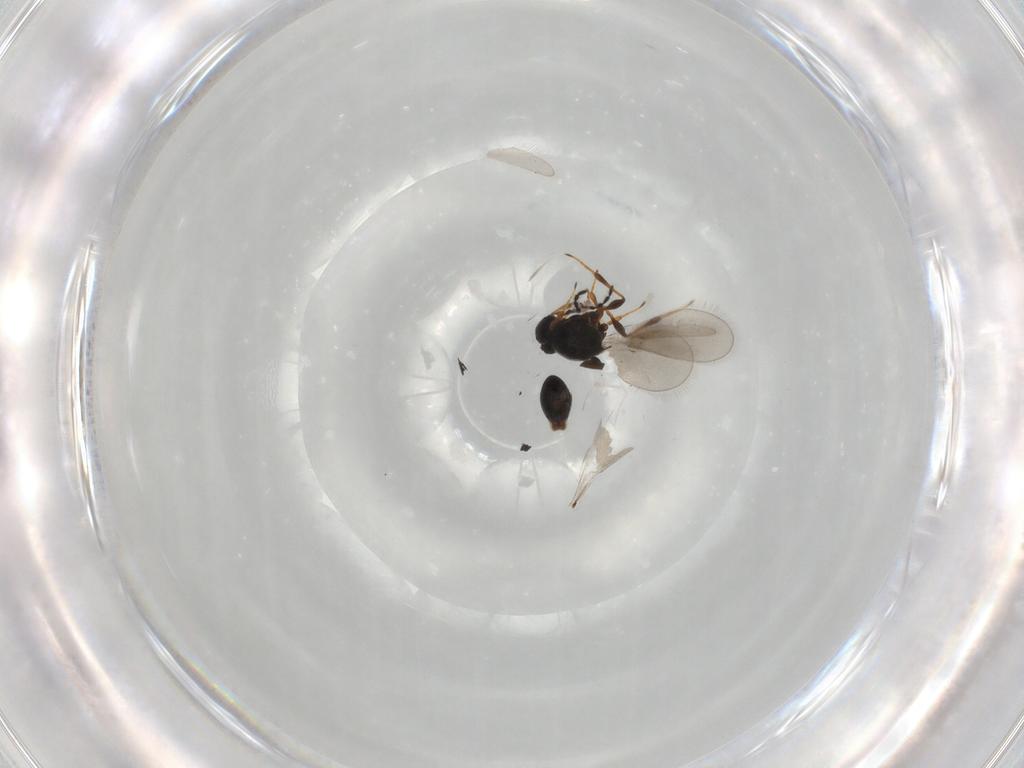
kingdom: Animalia
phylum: Arthropoda
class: Insecta
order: Hymenoptera
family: Platygastridae
